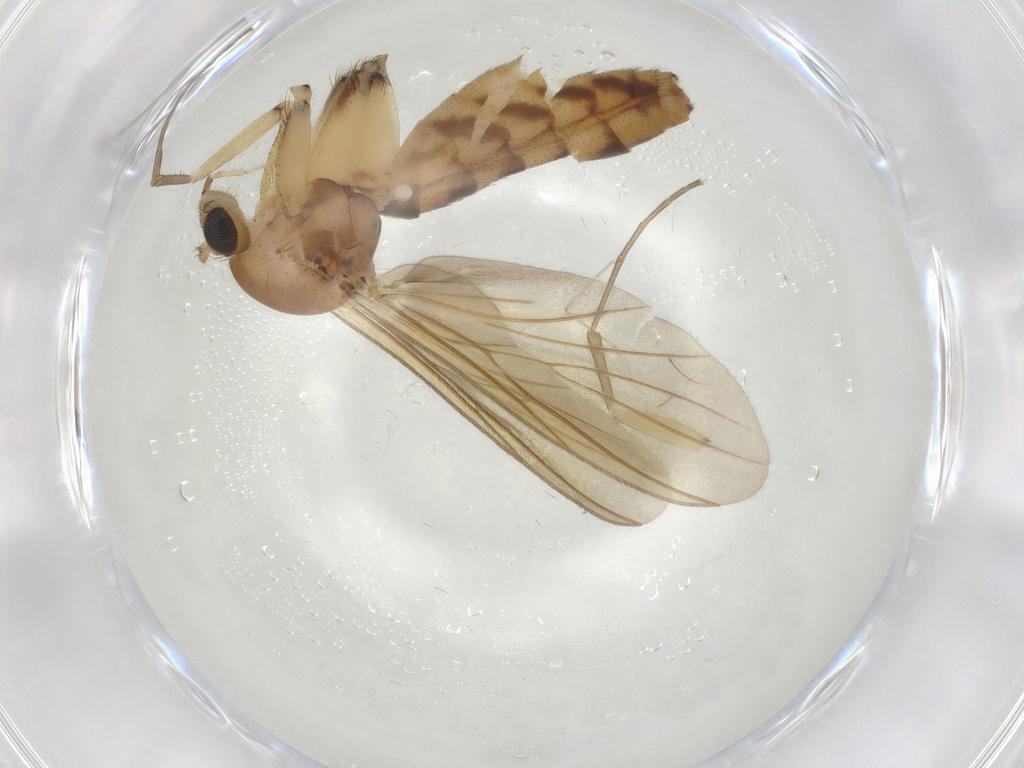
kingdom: Animalia
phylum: Arthropoda
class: Insecta
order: Diptera
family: Mycetophilidae
